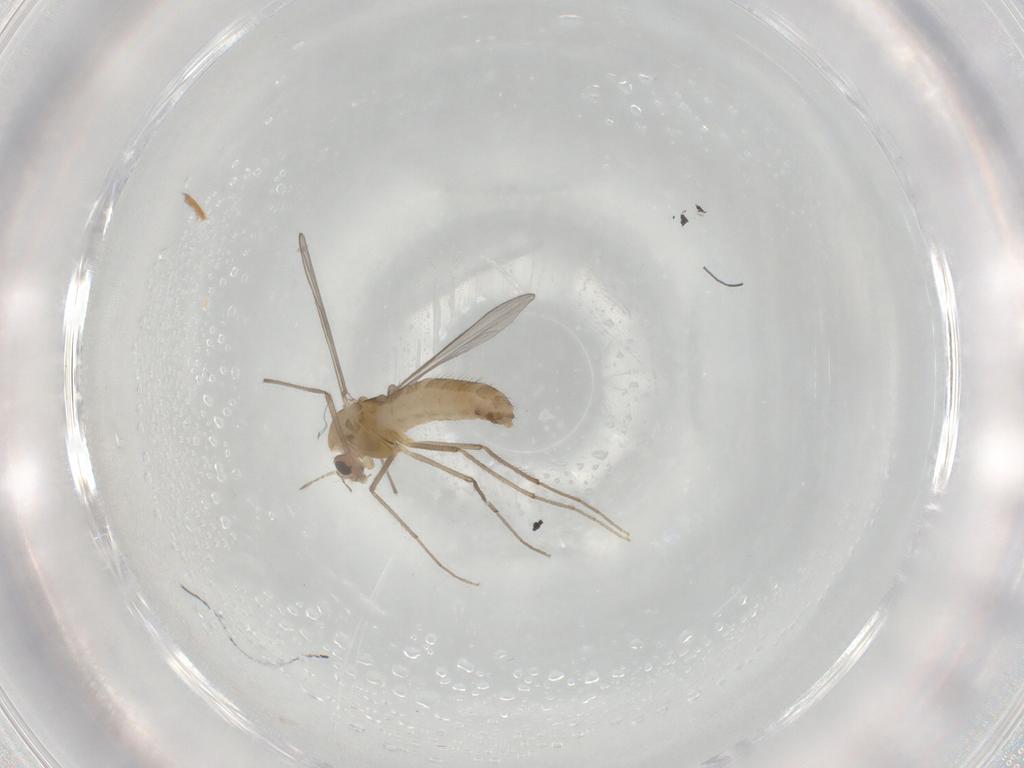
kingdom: Animalia
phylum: Arthropoda
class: Insecta
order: Diptera
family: Chironomidae
